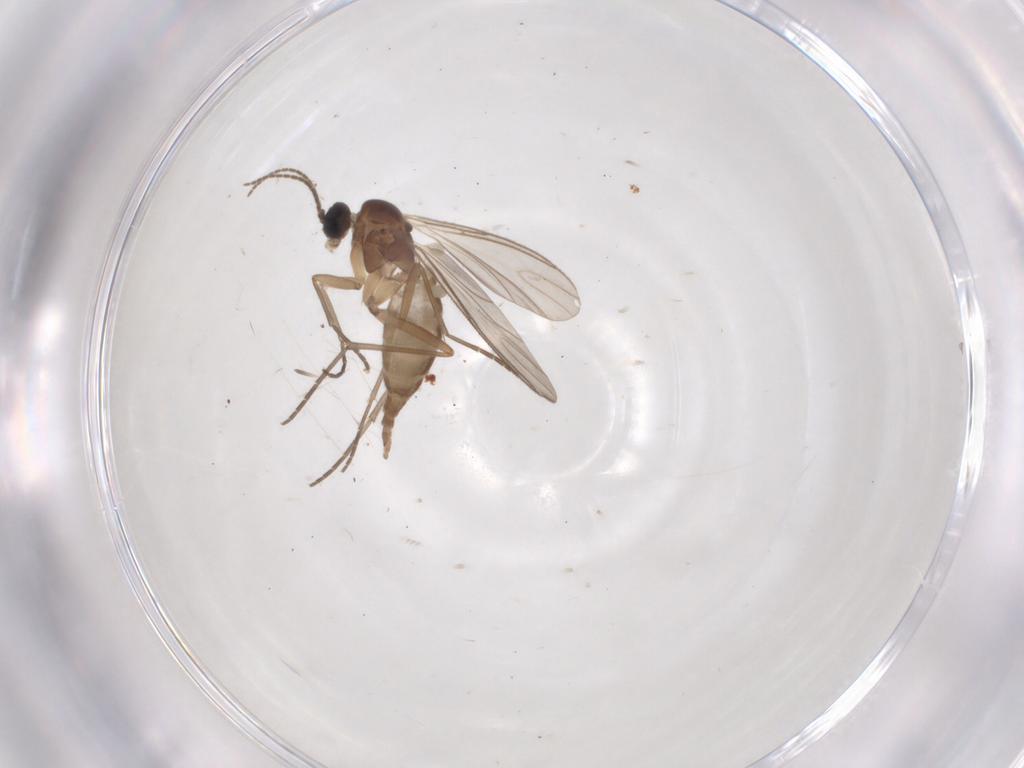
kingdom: Animalia
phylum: Arthropoda
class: Insecta
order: Diptera
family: Sciaridae
